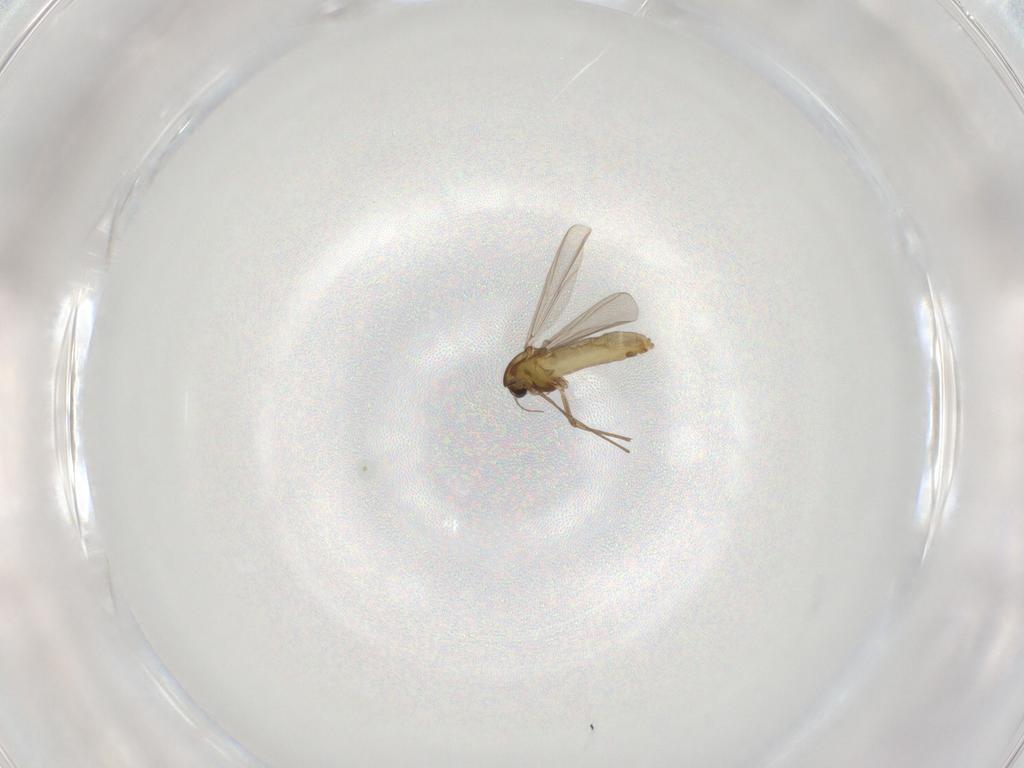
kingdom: Animalia
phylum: Arthropoda
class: Insecta
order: Diptera
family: Chironomidae
